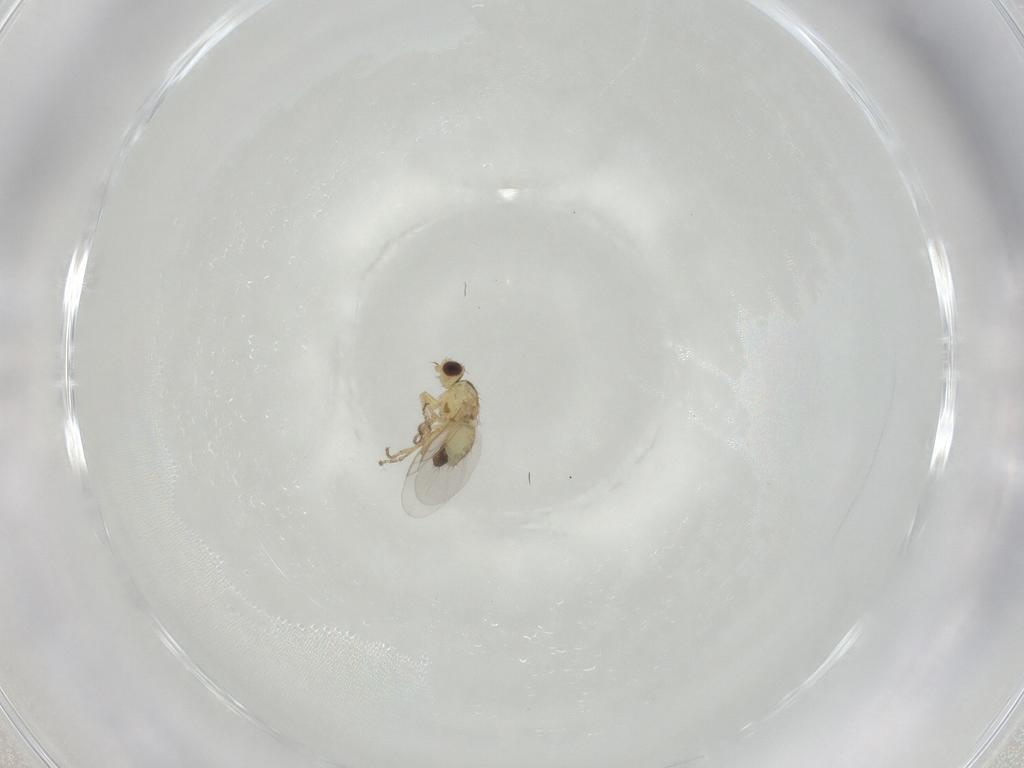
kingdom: Animalia
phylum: Arthropoda
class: Insecta
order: Diptera
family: Agromyzidae
